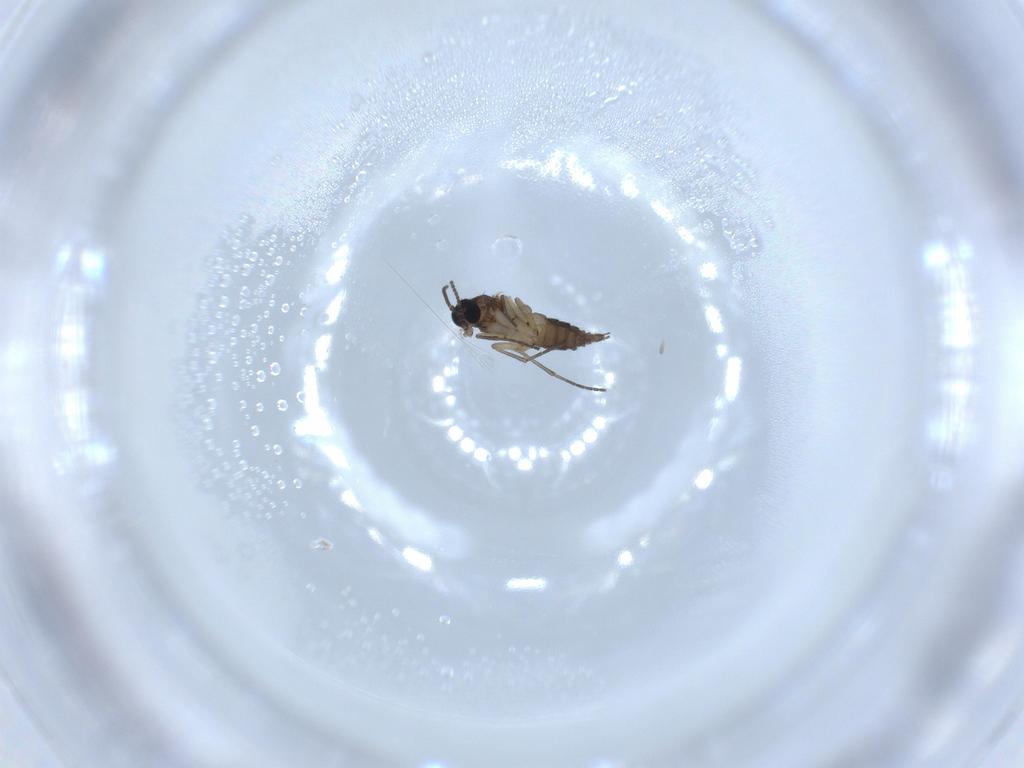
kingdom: Animalia
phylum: Arthropoda
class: Insecta
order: Diptera
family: Sciaridae
